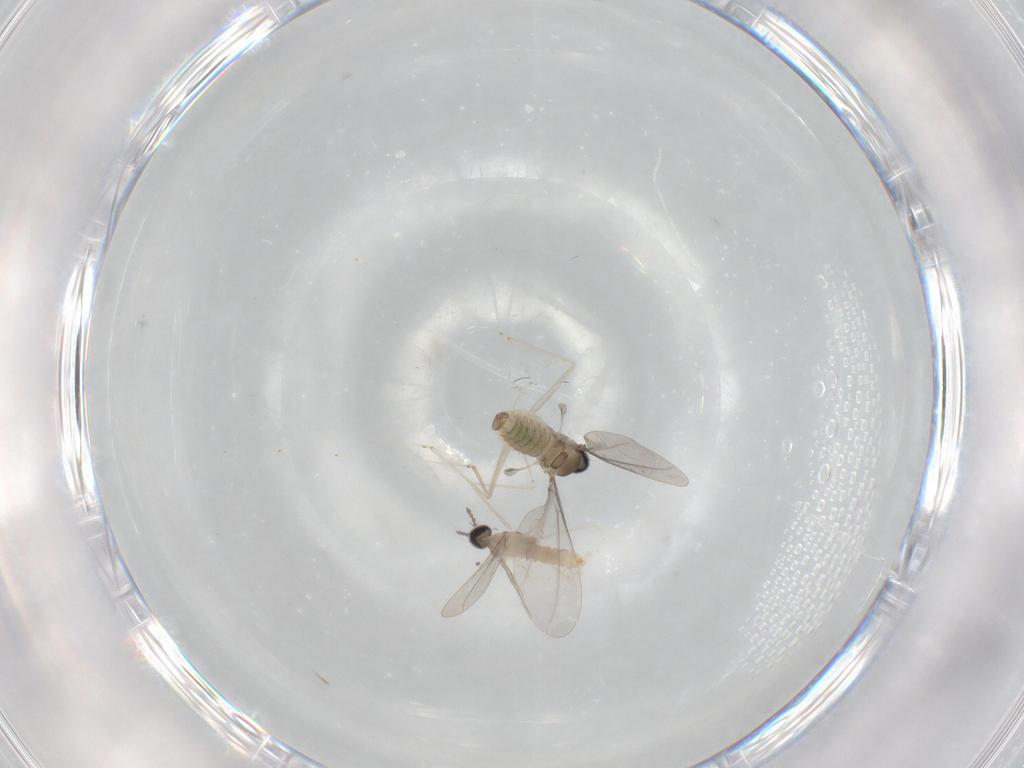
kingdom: Animalia
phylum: Arthropoda
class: Insecta
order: Diptera
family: Cecidomyiidae
